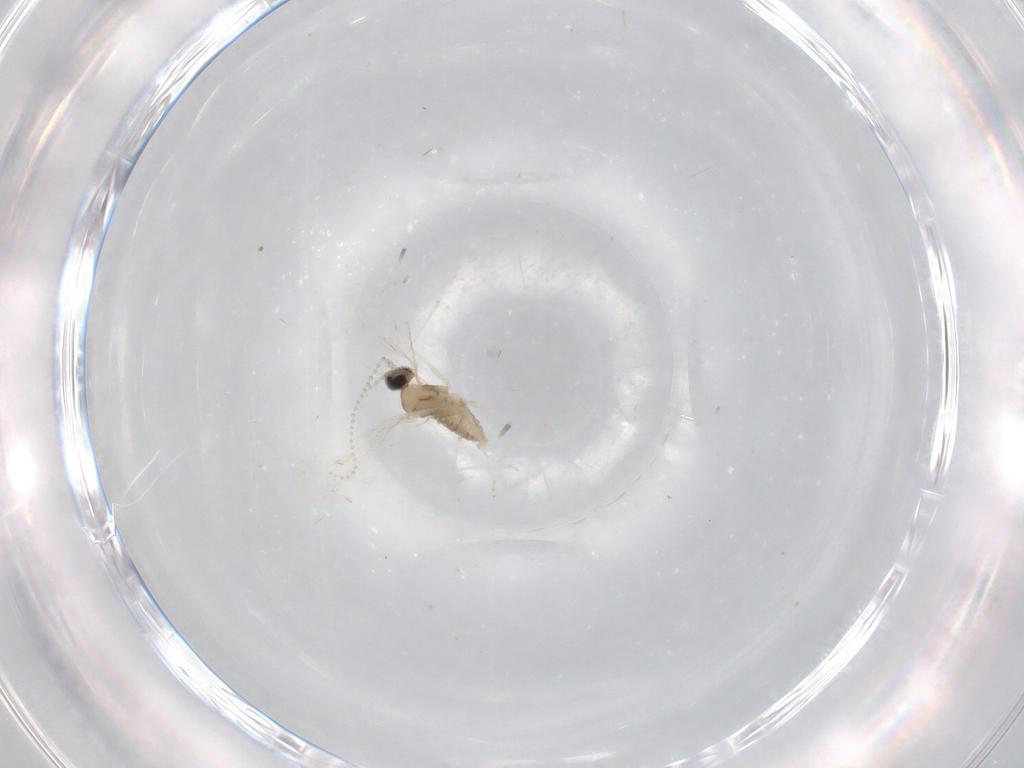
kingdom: Animalia
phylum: Arthropoda
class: Insecta
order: Diptera
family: Cecidomyiidae
